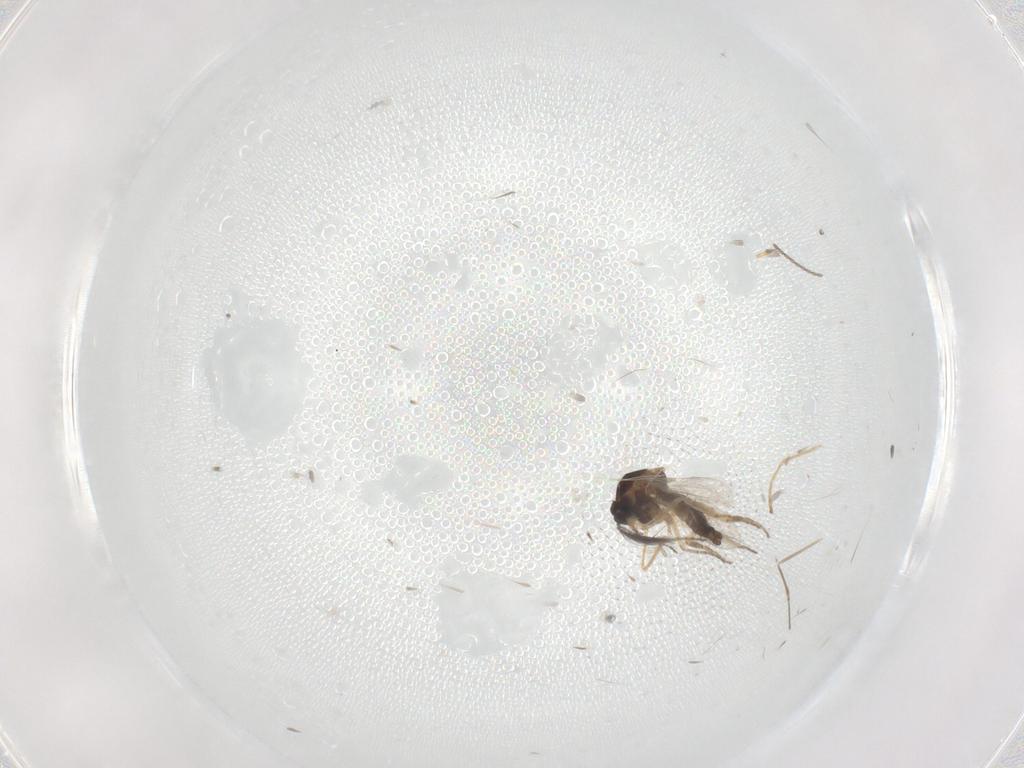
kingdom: Animalia
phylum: Arthropoda
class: Insecta
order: Diptera
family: Ceratopogonidae
